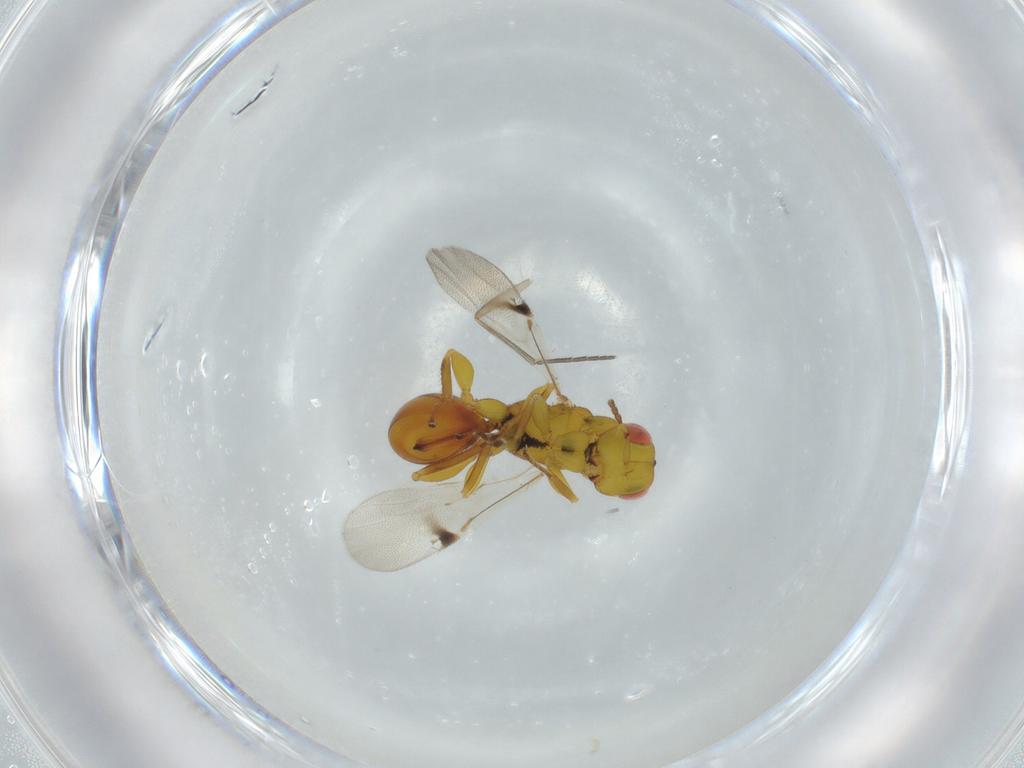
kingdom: Animalia
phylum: Arthropoda
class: Insecta
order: Hymenoptera
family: Eurytomidae
